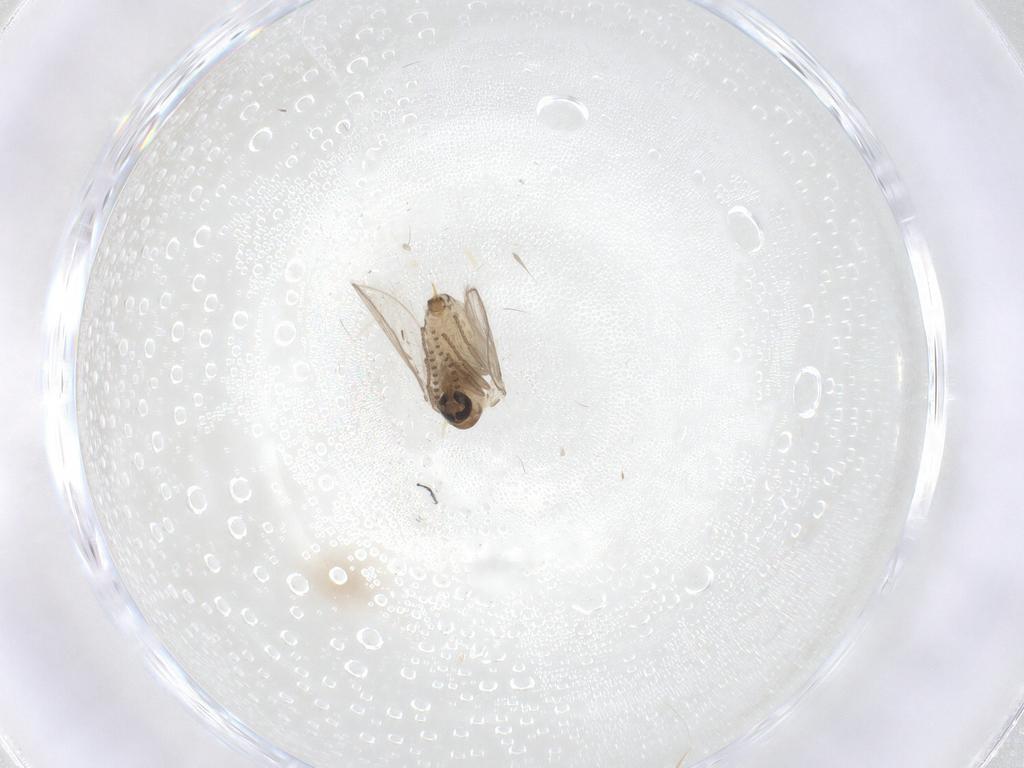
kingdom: Animalia
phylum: Arthropoda
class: Insecta
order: Diptera
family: Psychodidae
